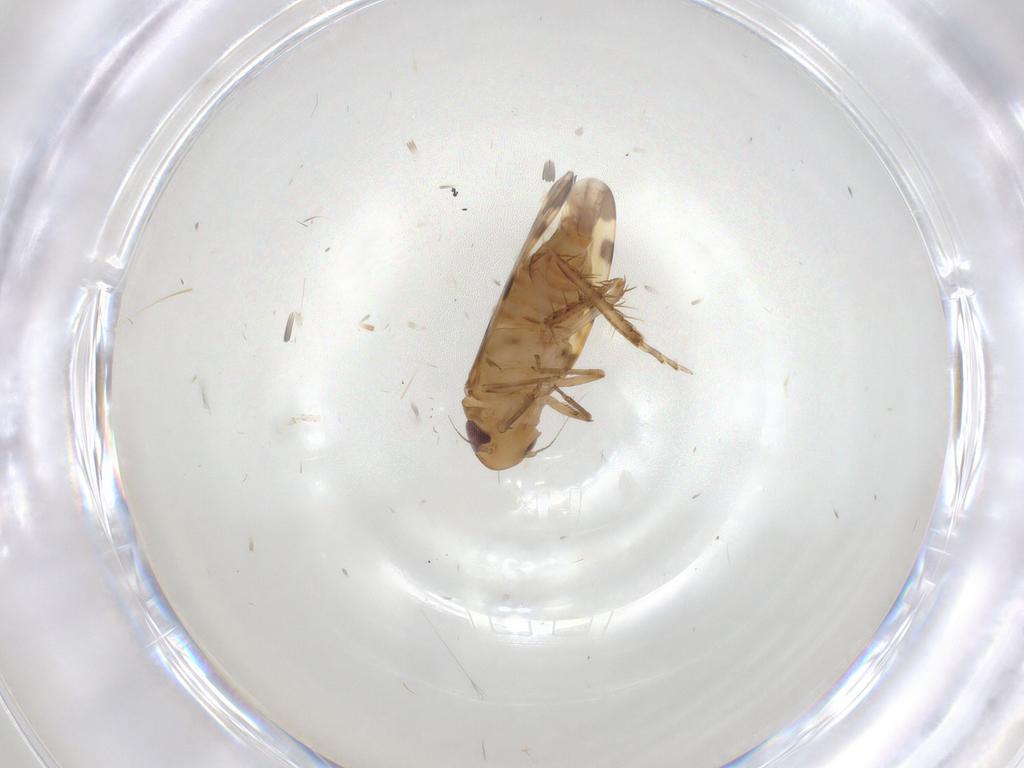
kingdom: Animalia
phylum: Arthropoda
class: Insecta
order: Hemiptera
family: Cicadellidae
